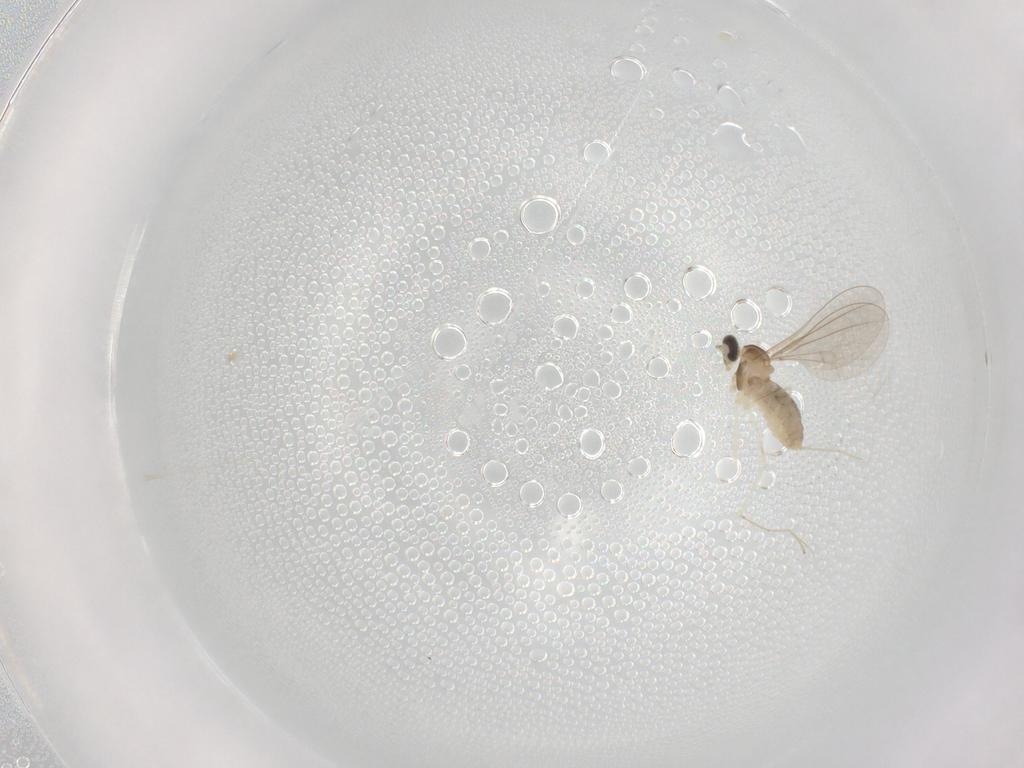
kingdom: Animalia
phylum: Arthropoda
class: Insecta
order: Diptera
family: Cecidomyiidae
